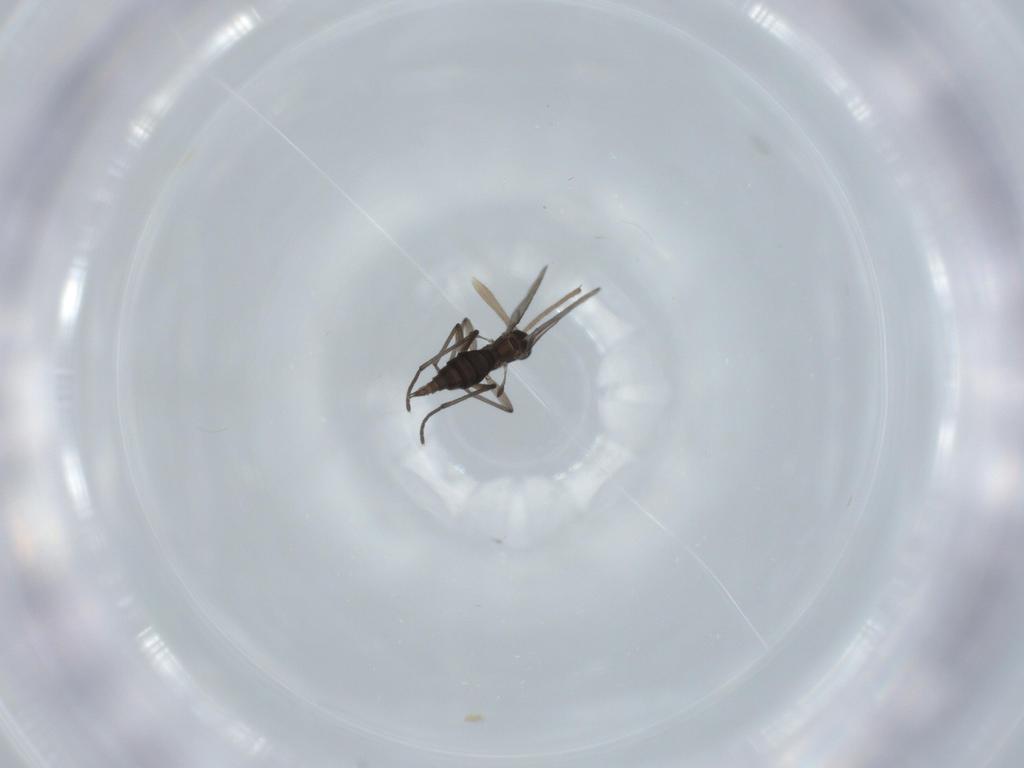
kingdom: Animalia
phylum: Arthropoda
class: Insecta
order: Diptera
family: Sciaridae
